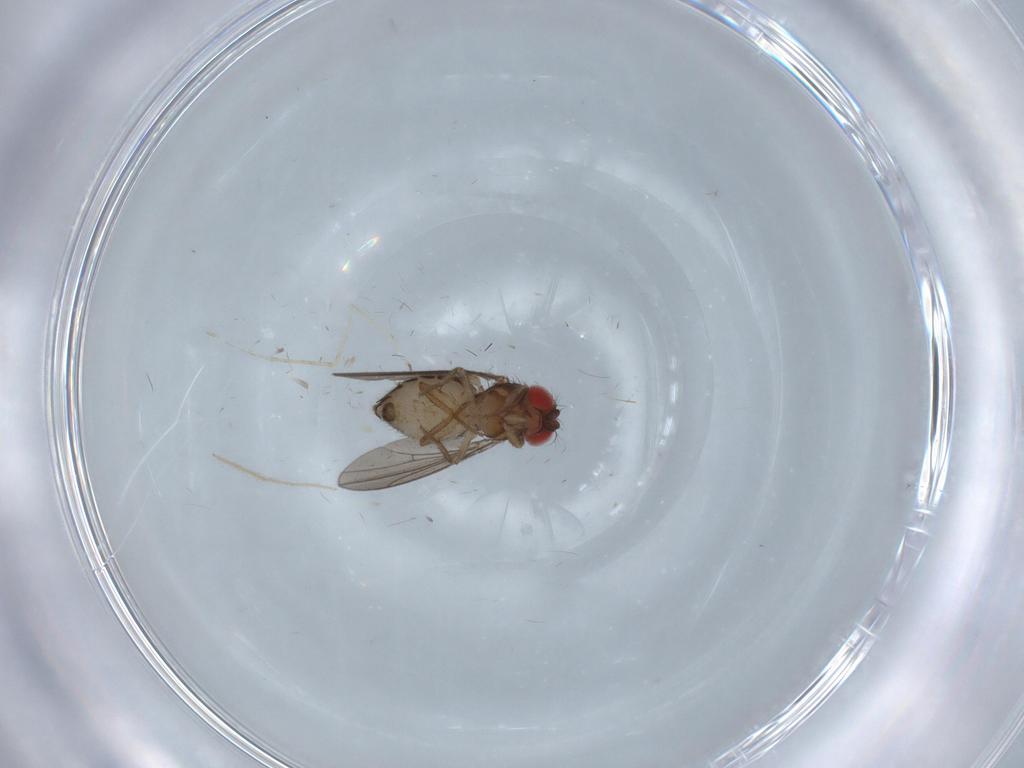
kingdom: Animalia
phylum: Arthropoda
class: Insecta
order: Diptera
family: Drosophilidae
